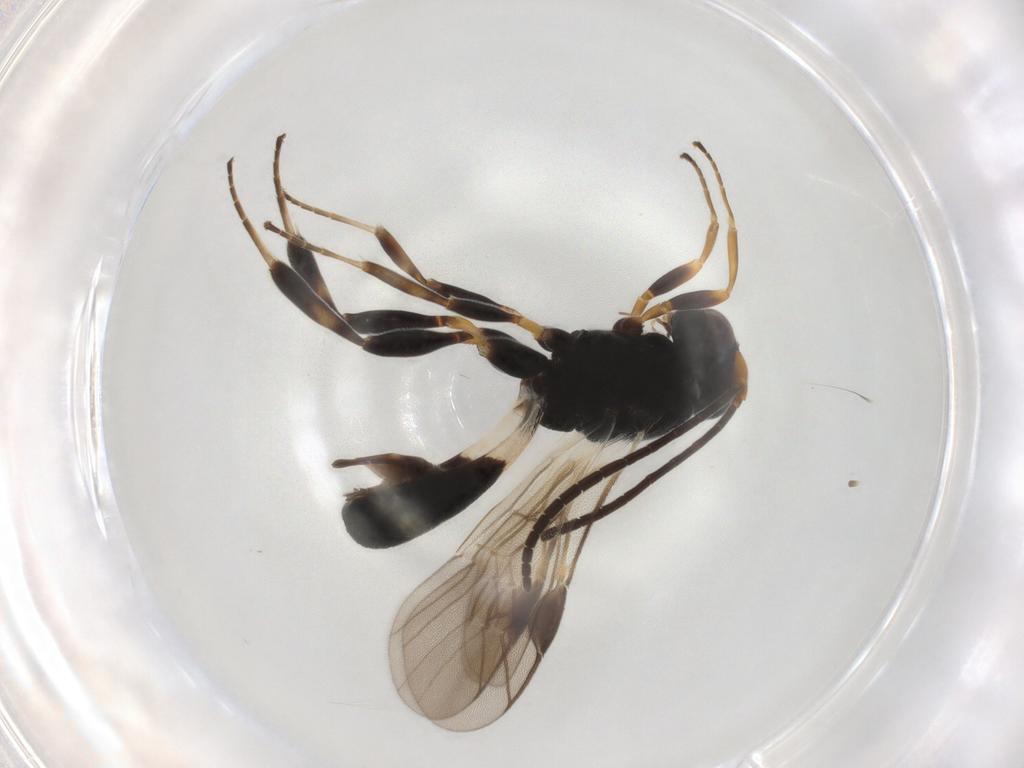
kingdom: Animalia
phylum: Arthropoda
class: Insecta
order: Hymenoptera
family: Braconidae
